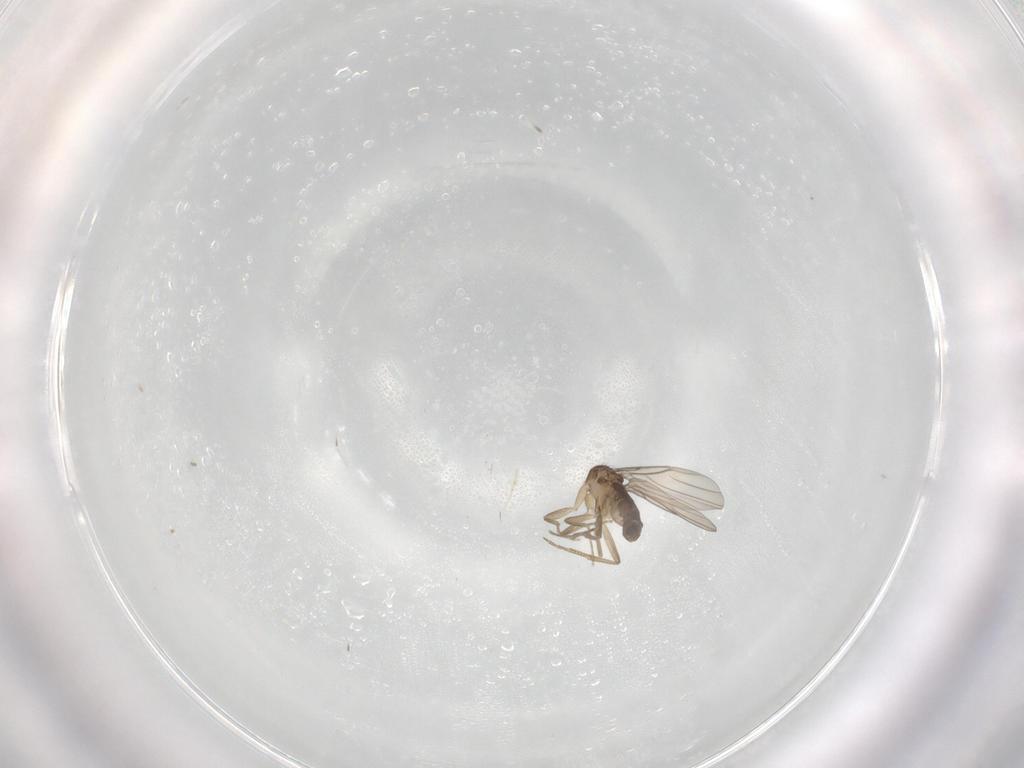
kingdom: Animalia
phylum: Arthropoda
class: Insecta
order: Diptera
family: Phoridae
